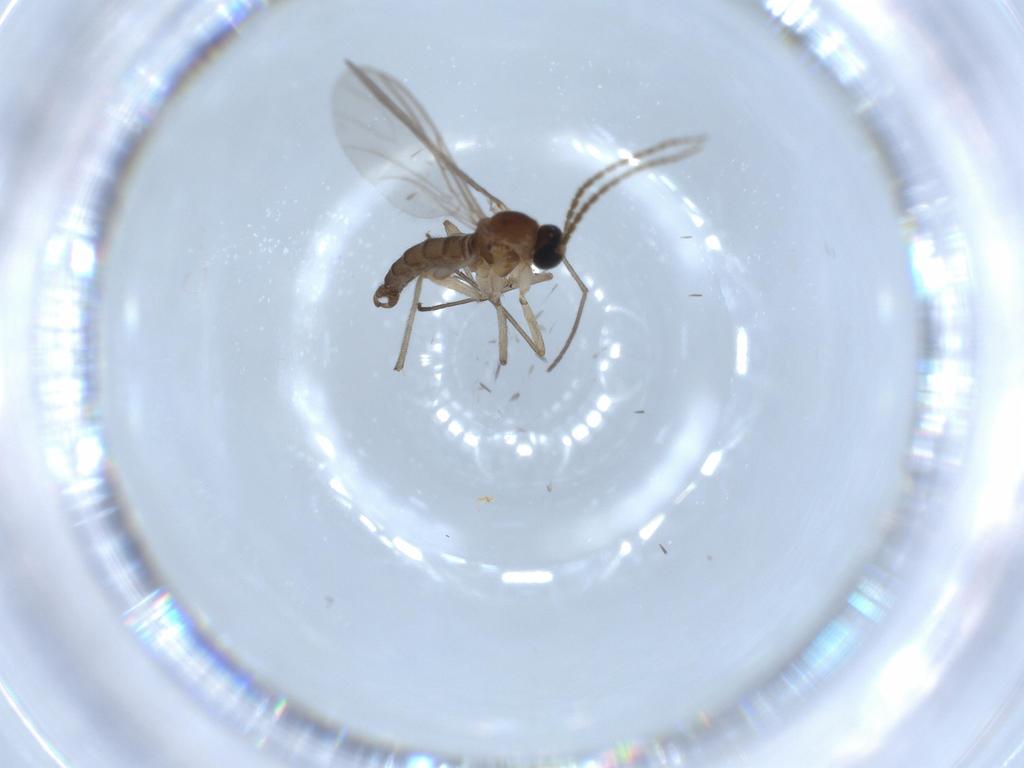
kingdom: Animalia
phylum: Arthropoda
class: Insecta
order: Diptera
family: Sciaridae
